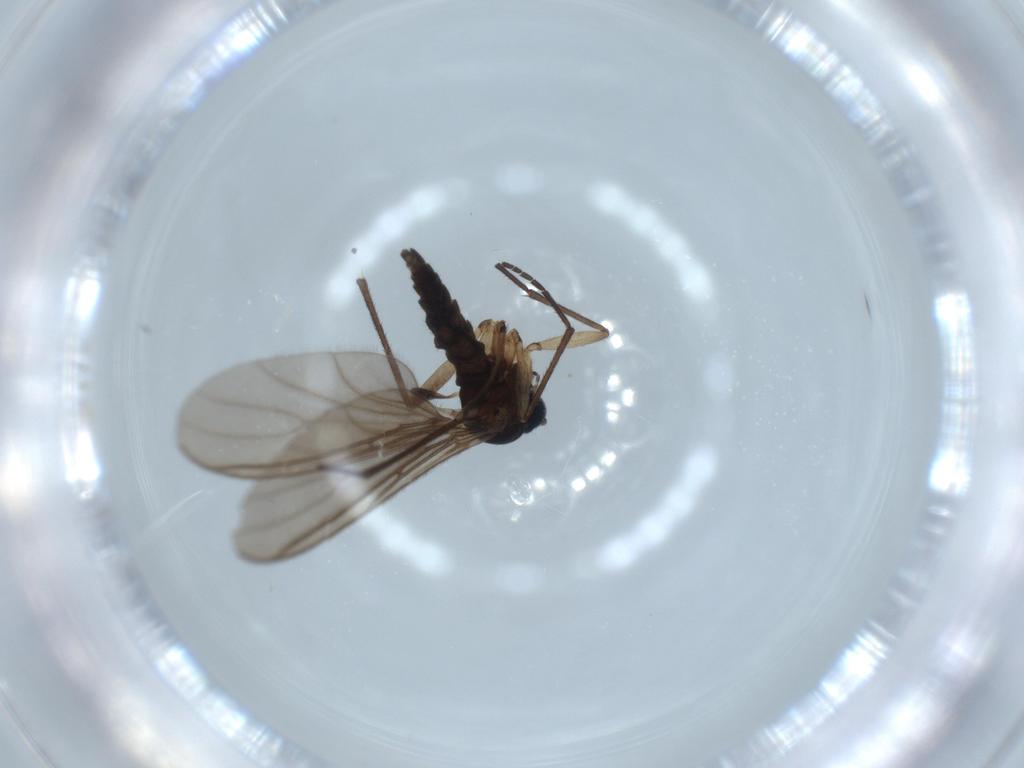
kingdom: Animalia
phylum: Arthropoda
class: Insecta
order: Diptera
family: Sciaridae
